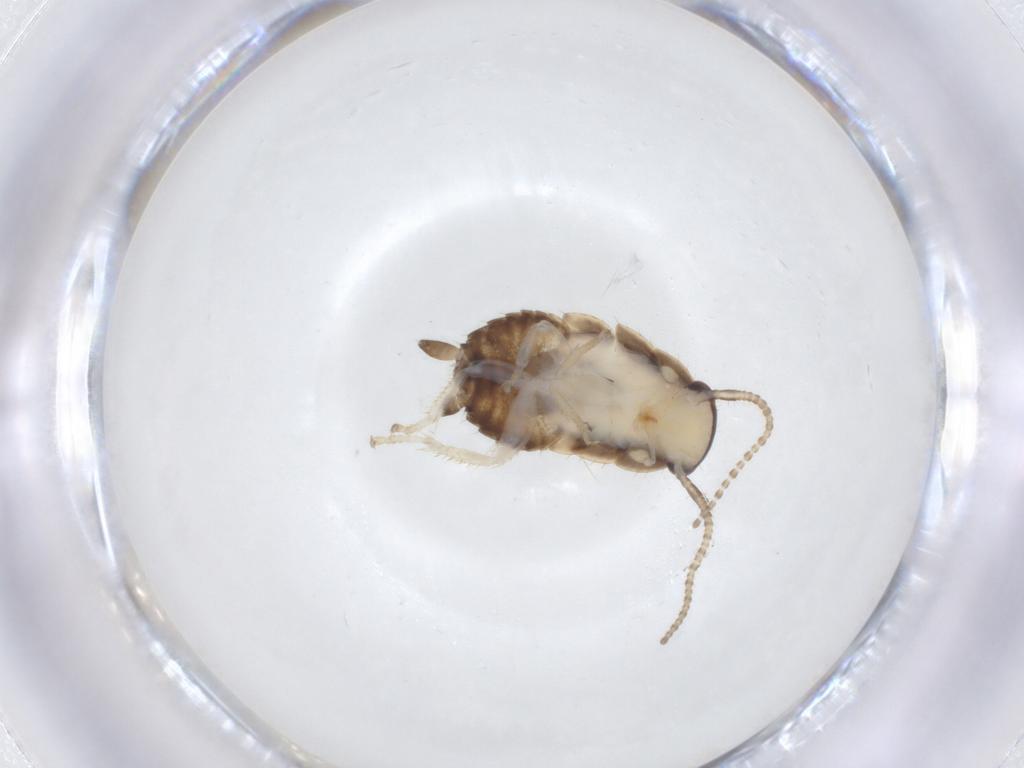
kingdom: Animalia
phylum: Arthropoda
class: Insecta
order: Blattodea
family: Ectobiidae
